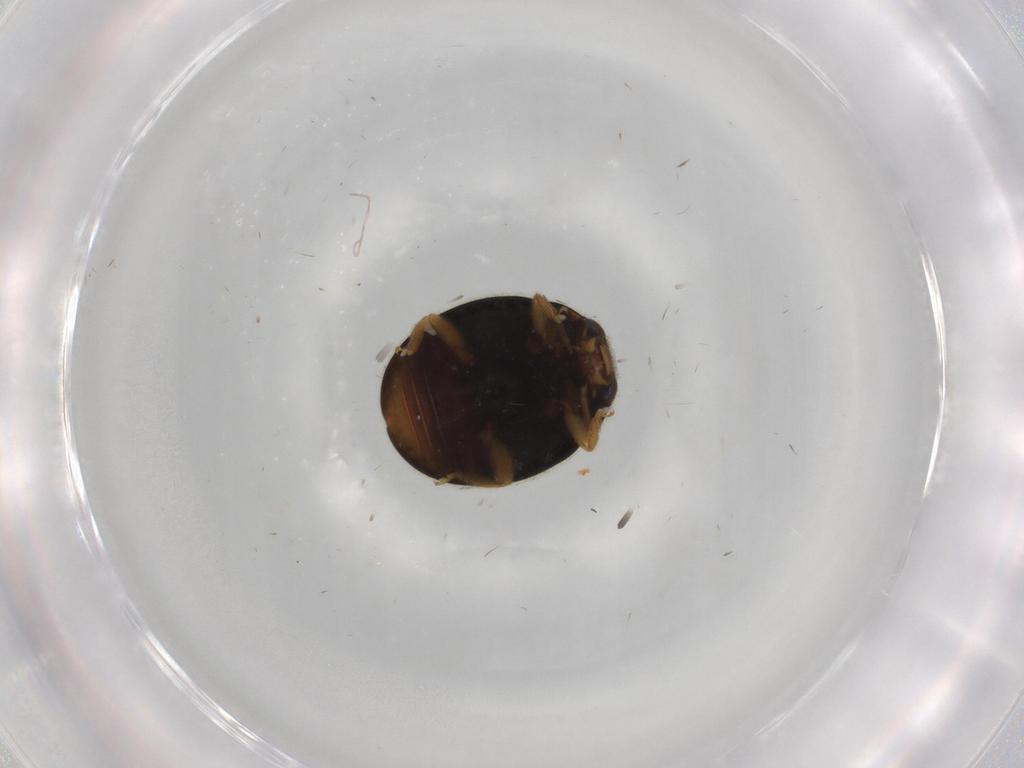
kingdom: Animalia
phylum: Arthropoda
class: Insecta
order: Coleoptera
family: Coccinellidae
